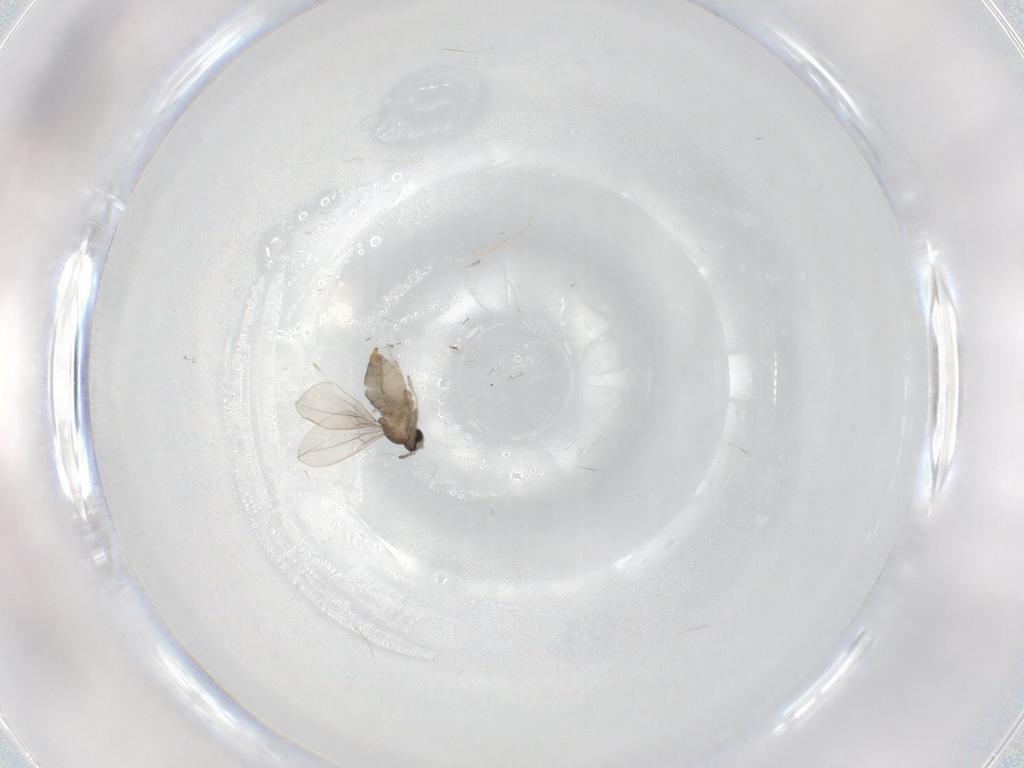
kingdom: Animalia
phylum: Arthropoda
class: Insecta
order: Diptera
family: Cecidomyiidae
